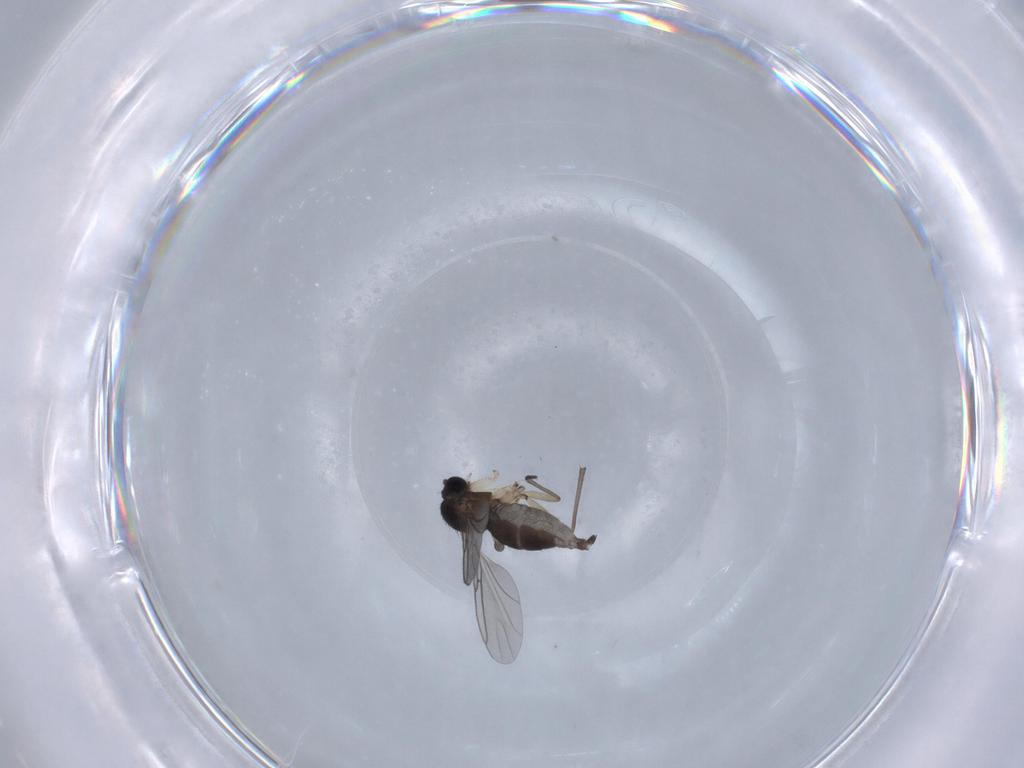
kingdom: Animalia
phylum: Arthropoda
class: Insecta
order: Diptera
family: Sciaridae
